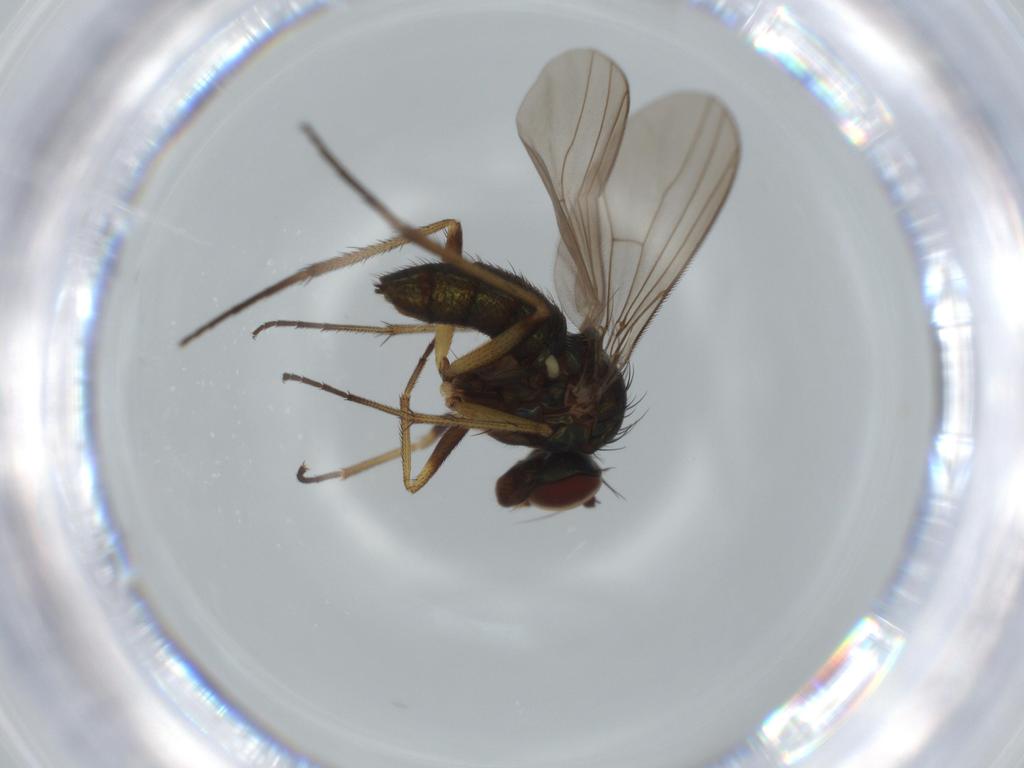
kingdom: Animalia
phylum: Arthropoda
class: Insecta
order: Diptera
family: Dolichopodidae
